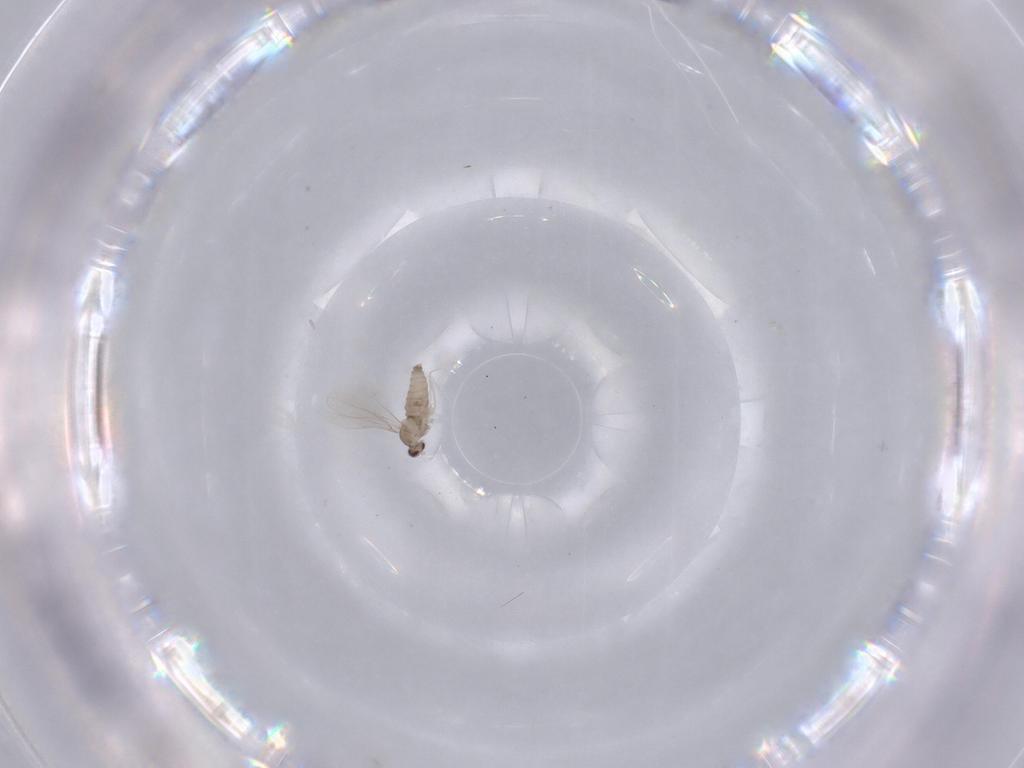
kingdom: Animalia
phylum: Arthropoda
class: Insecta
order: Diptera
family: Cecidomyiidae
